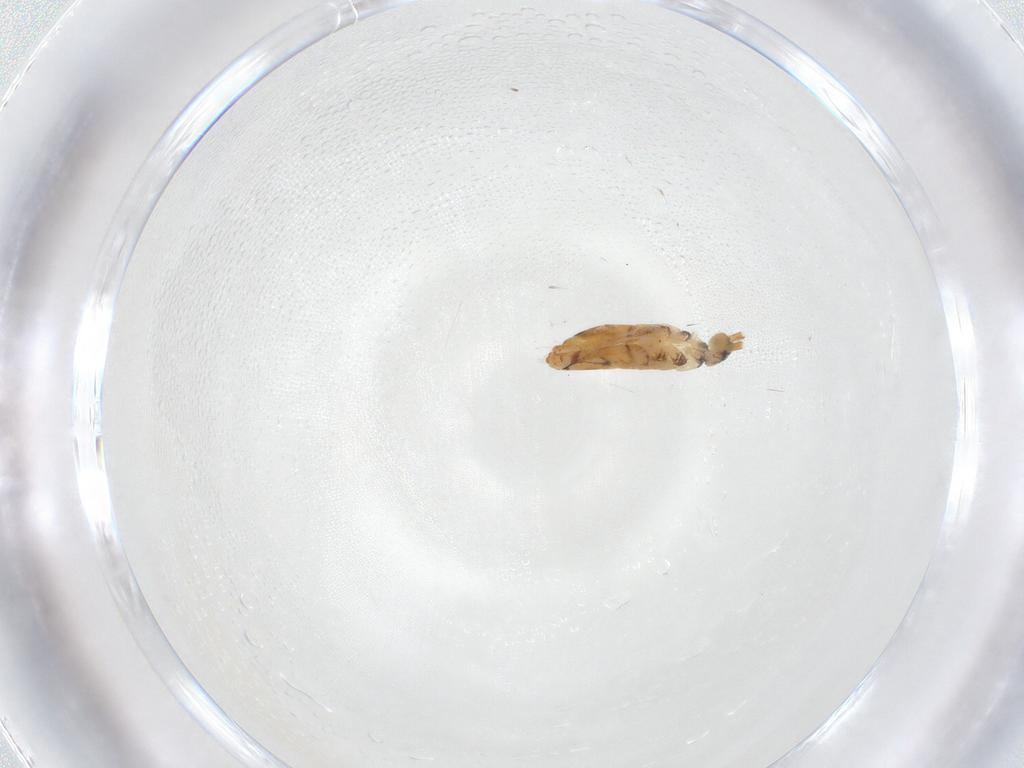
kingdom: Animalia
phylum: Arthropoda
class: Collembola
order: Entomobryomorpha
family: Entomobryidae
